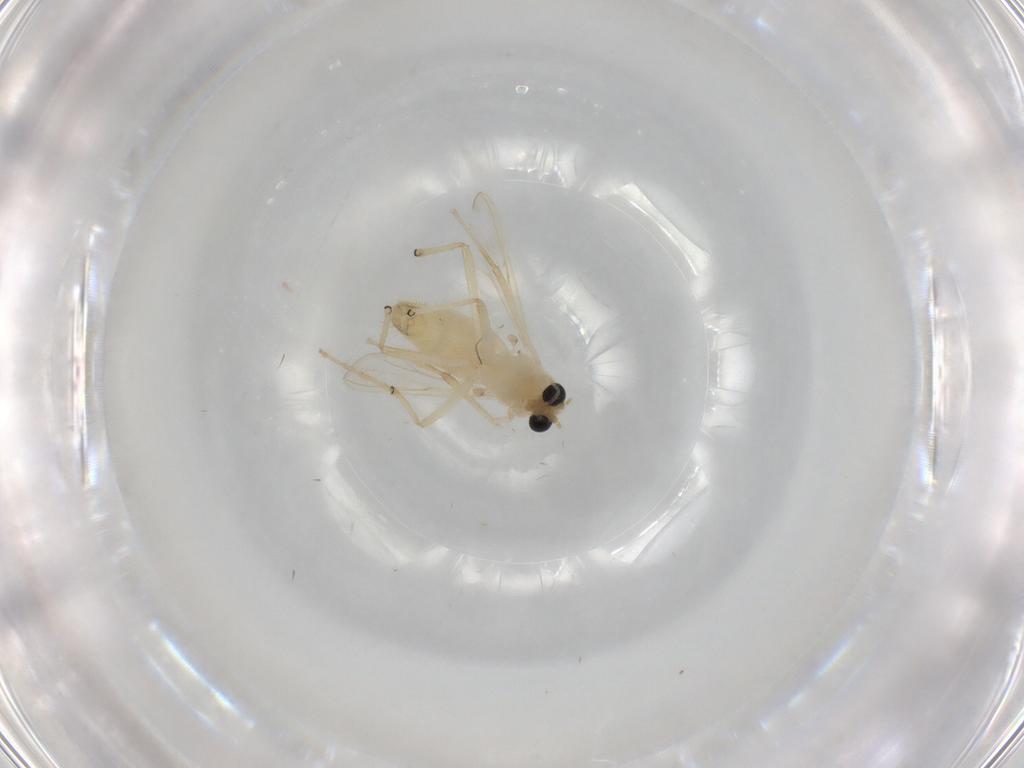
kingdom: Animalia
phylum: Arthropoda
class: Insecta
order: Diptera
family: Chironomidae
